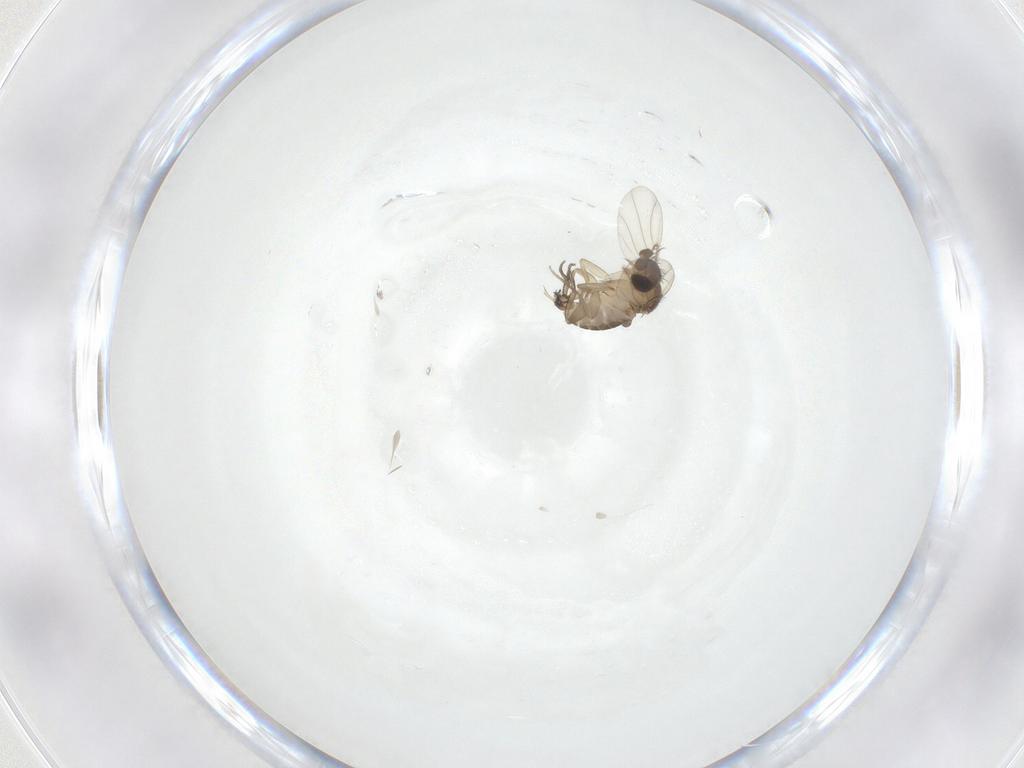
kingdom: Animalia
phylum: Arthropoda
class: Insecta
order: Diptera
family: Phoridae
